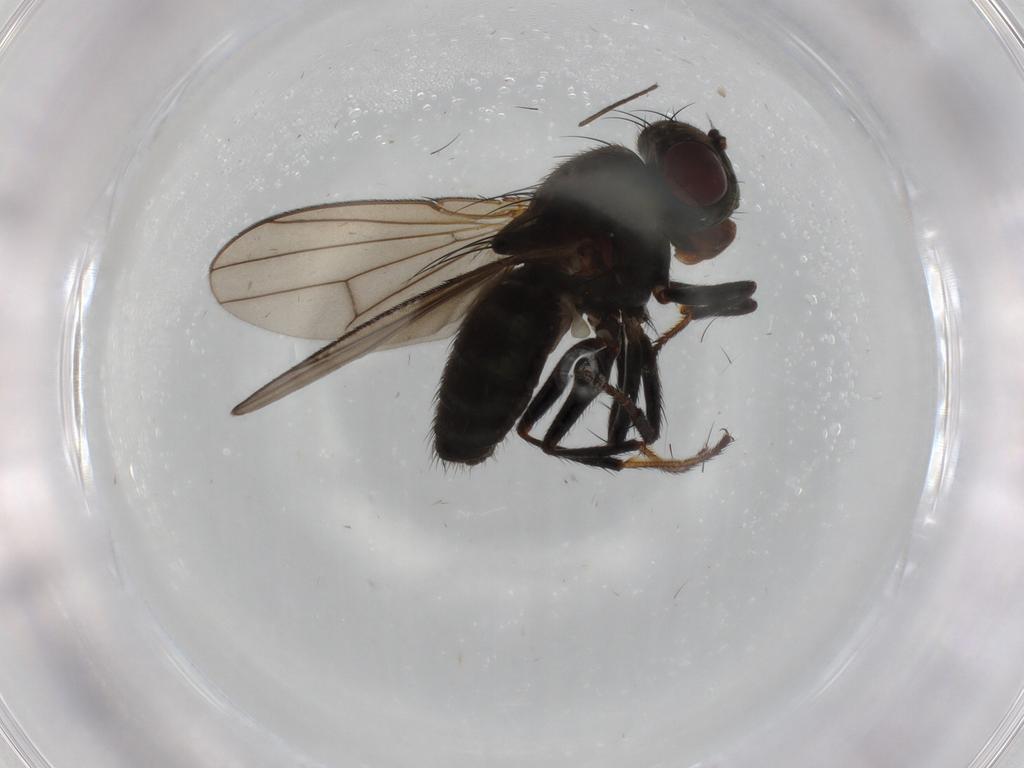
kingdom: Animalia
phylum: Arthropoda
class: Insecta
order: Diptera
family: Ephydridae
